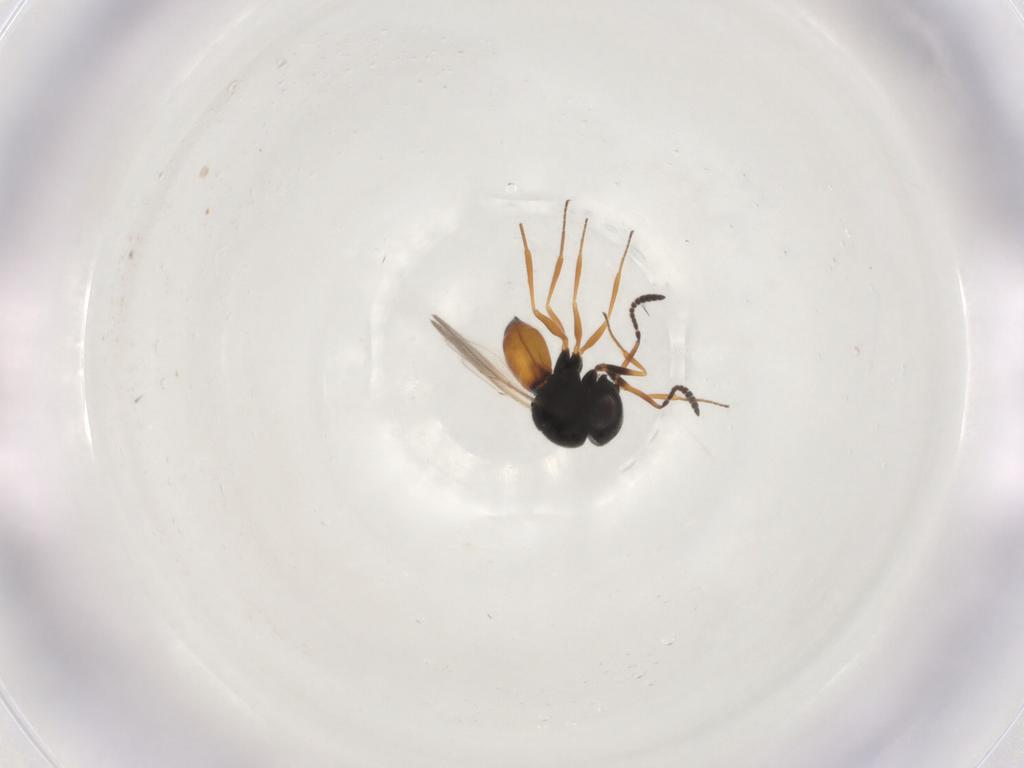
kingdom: Animalia
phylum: Arthropoda
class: Insecta
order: Hymenoptera
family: Scelionidae
